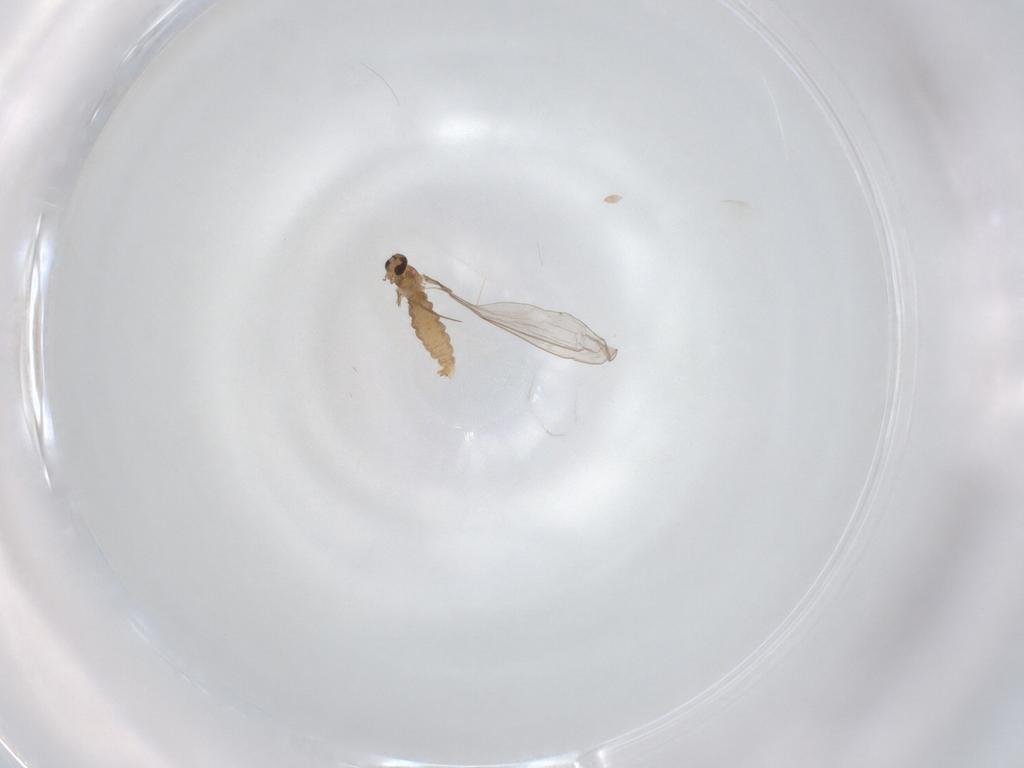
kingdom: Animalia
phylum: Arthropoda
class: Insecta
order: Diptera
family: Cecidomyiidae
